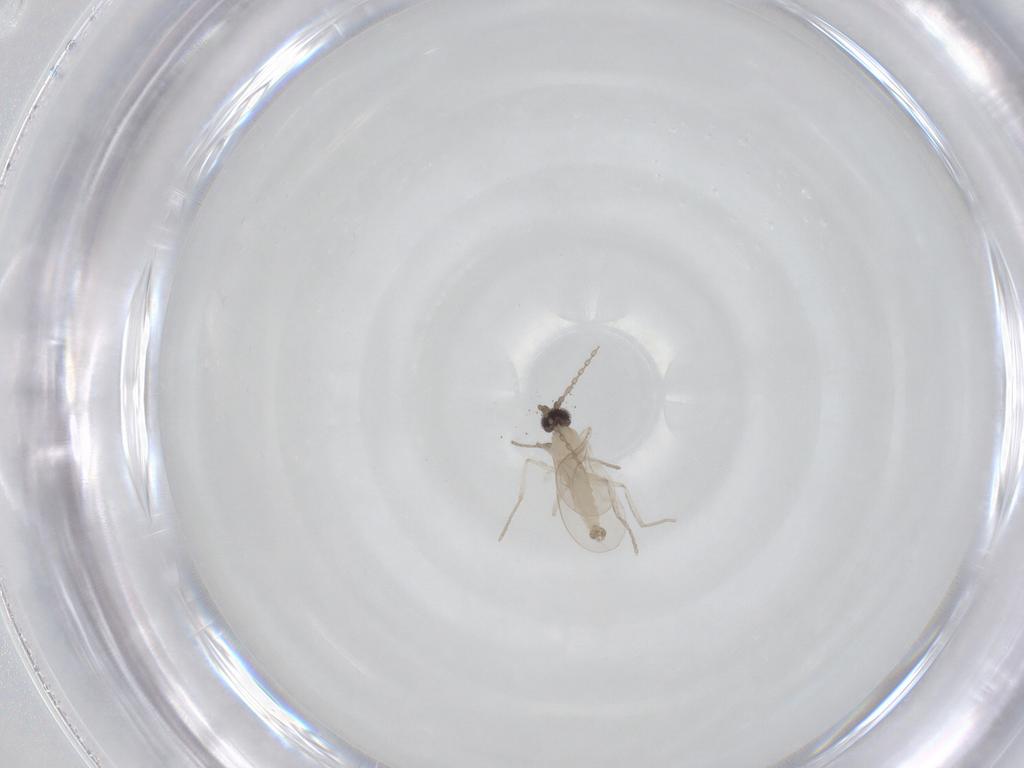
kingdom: Animalia
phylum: Arthropoda
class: Insecta
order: Diptera
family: Cecidomyiidae
